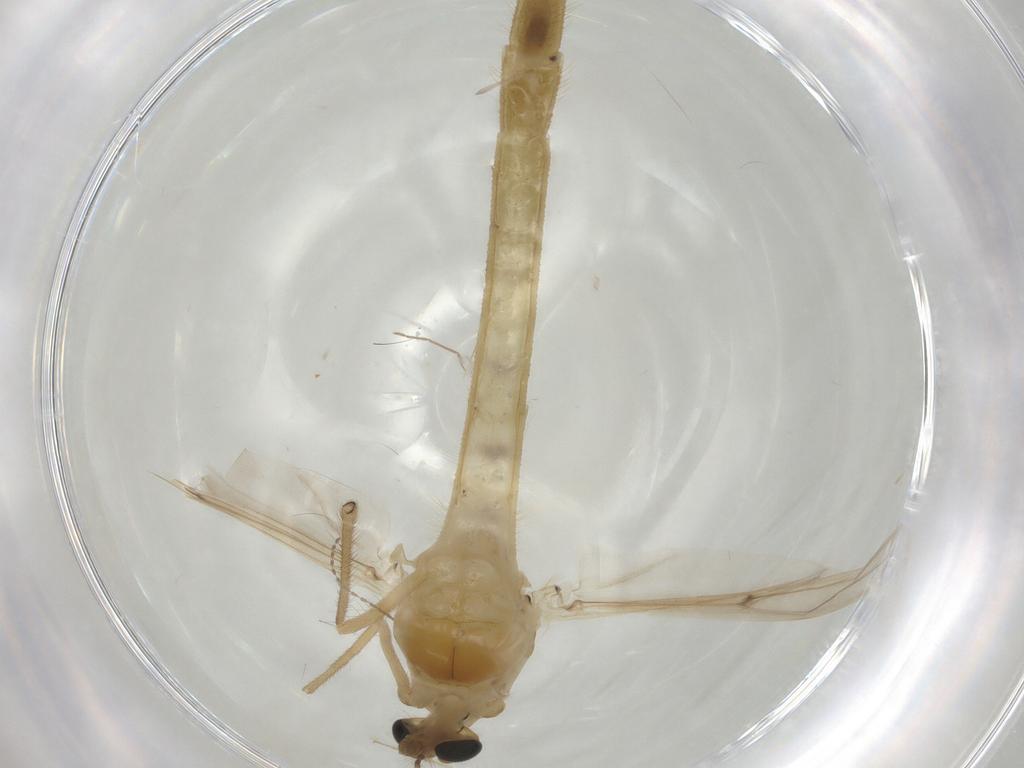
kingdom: Animalia
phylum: Arthropoda
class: Insecta
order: Diptera
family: Chironomidae
